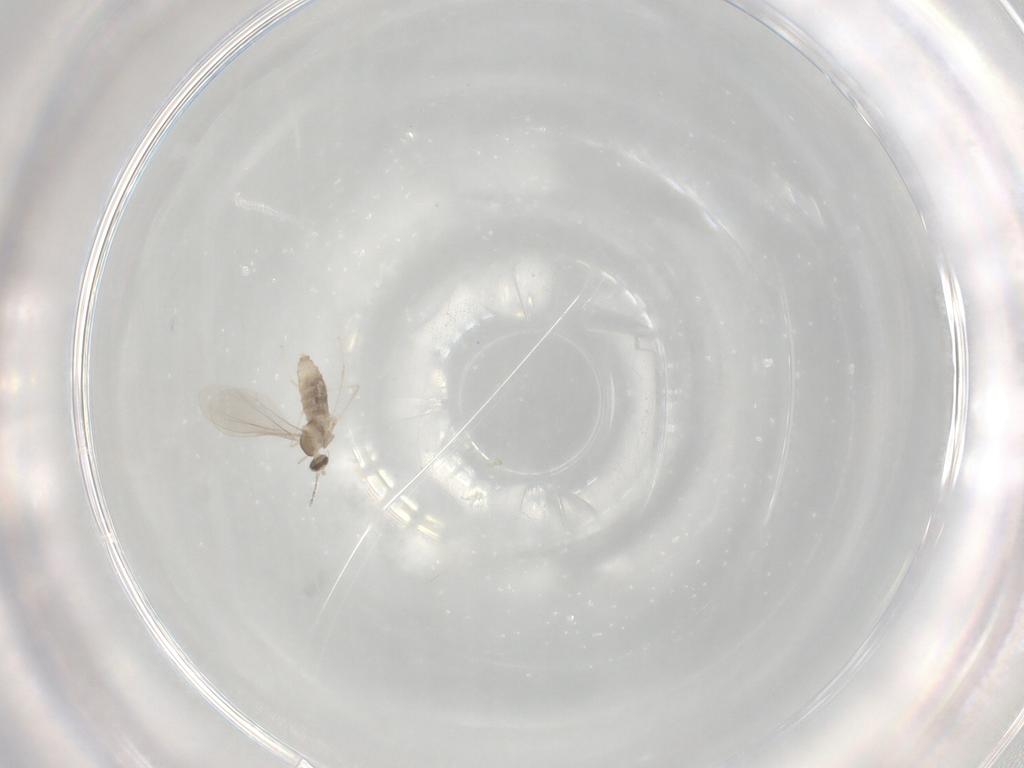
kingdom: Animalia
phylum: Arthropoda
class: Insecta
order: Diptera
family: Cecidomyiidae
